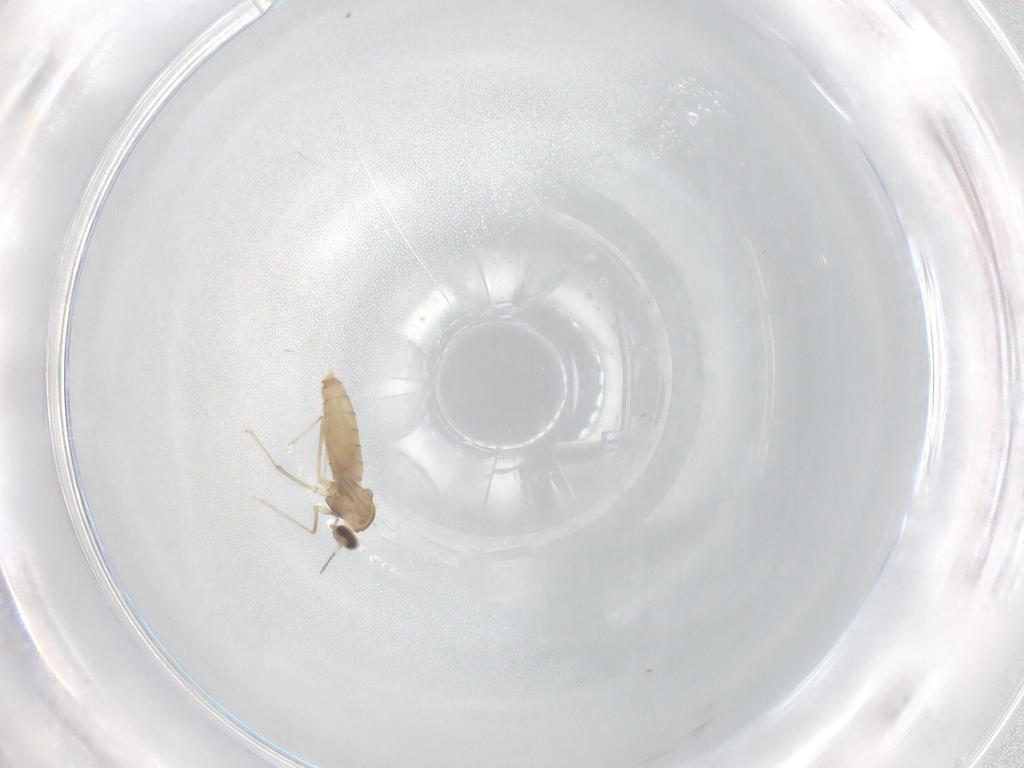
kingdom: Animalia
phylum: Arthropoda
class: Insecta
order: Diptera
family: Cecidomyiidae
